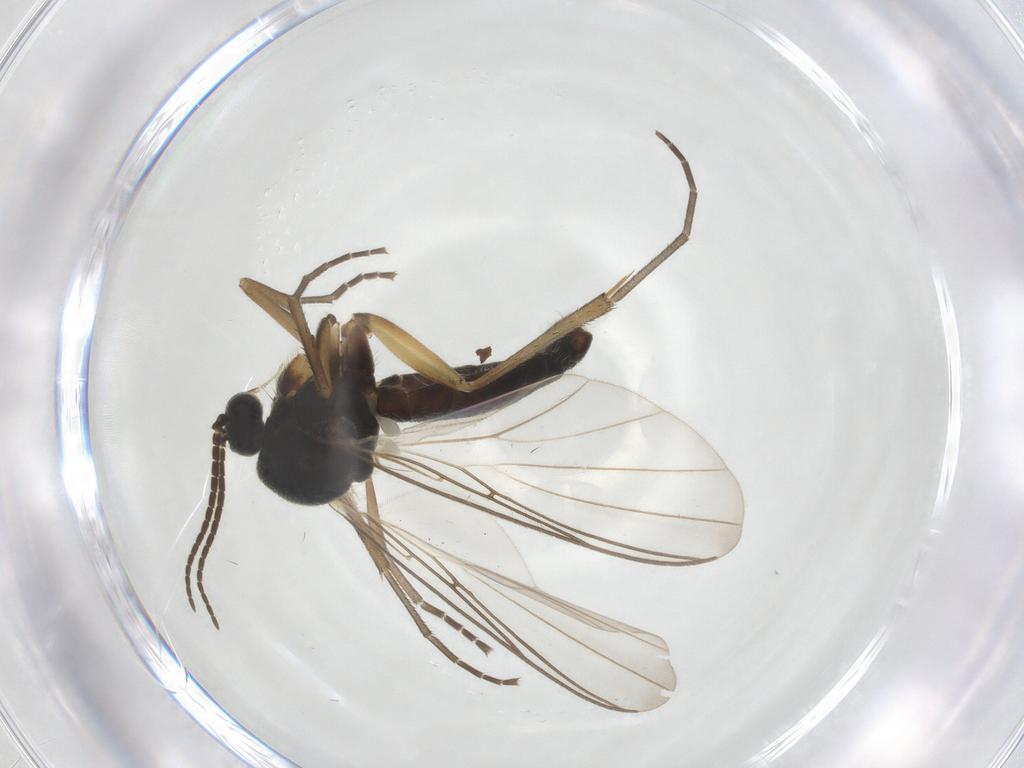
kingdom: Animalia
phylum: Arthropoda
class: Insecta
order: Diptera
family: Mycetophilidae
